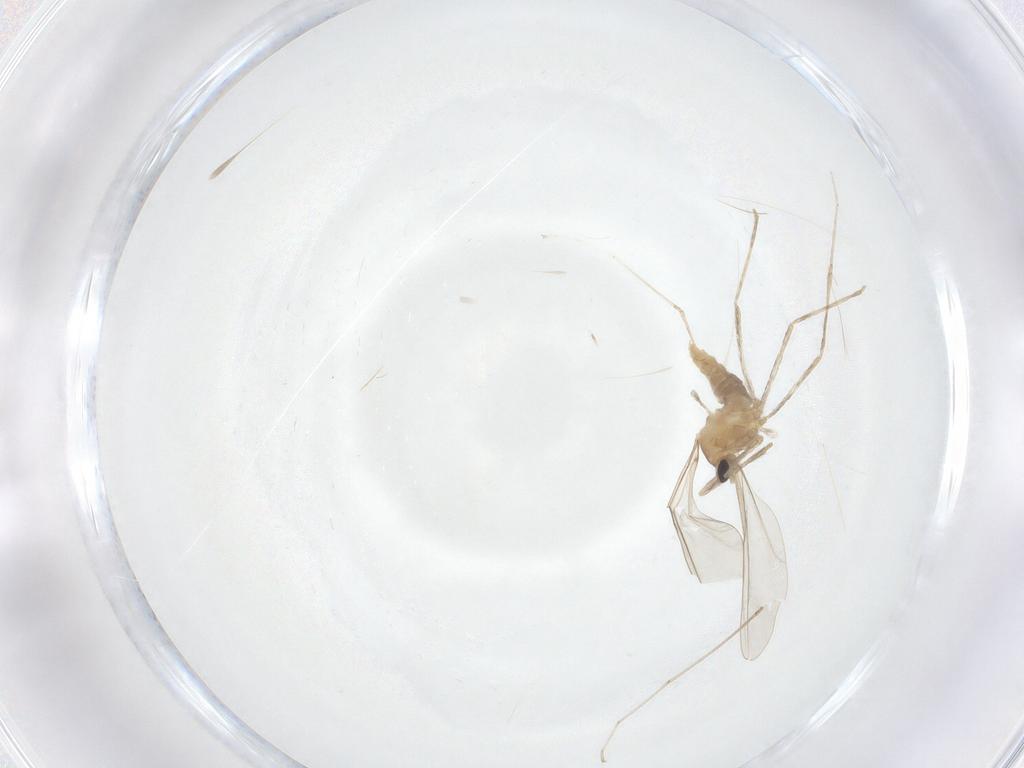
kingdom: Animalia
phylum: Arthropoda
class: Insecta
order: Diptera
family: Cecidomyiidae
